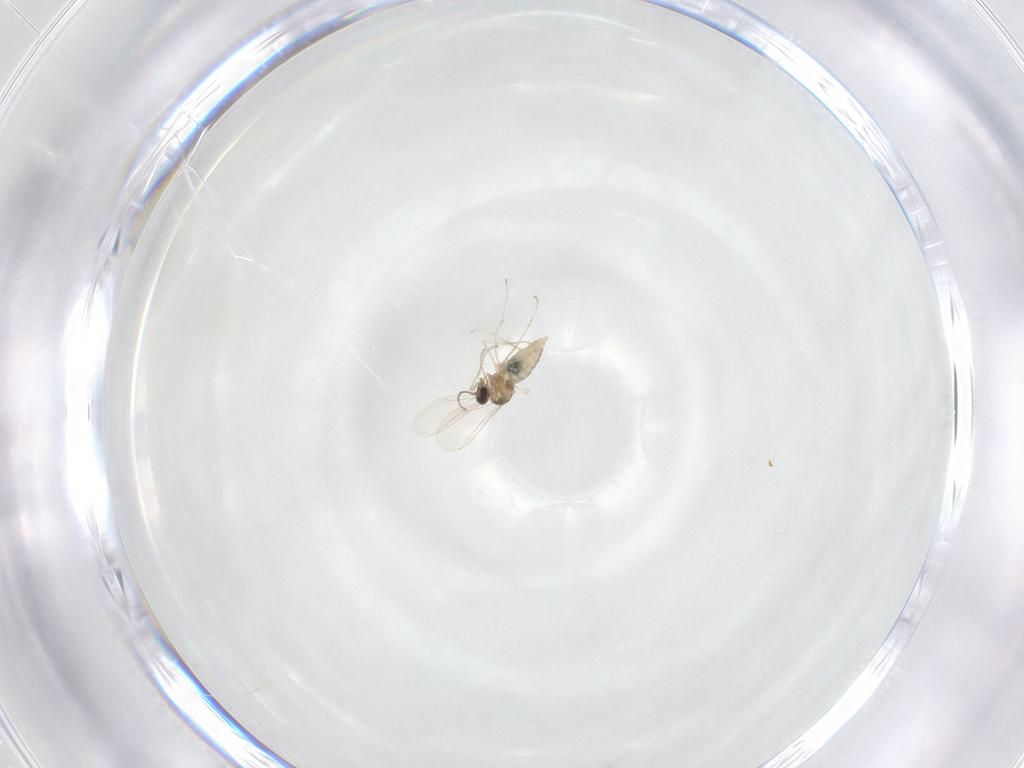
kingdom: Animalia
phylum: Arthropoda
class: Insecta
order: Diptera
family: Cecidomyiidae
